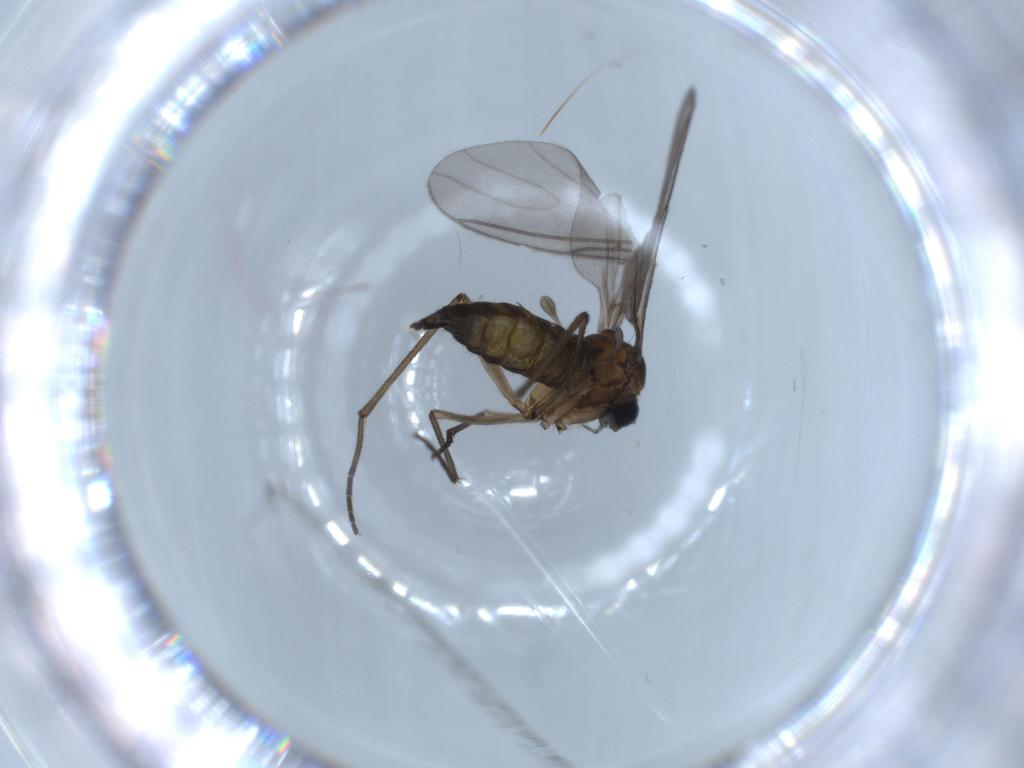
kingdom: Animalia
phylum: Arthropoda
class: Insecta
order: Diptera
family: Sciaridae
